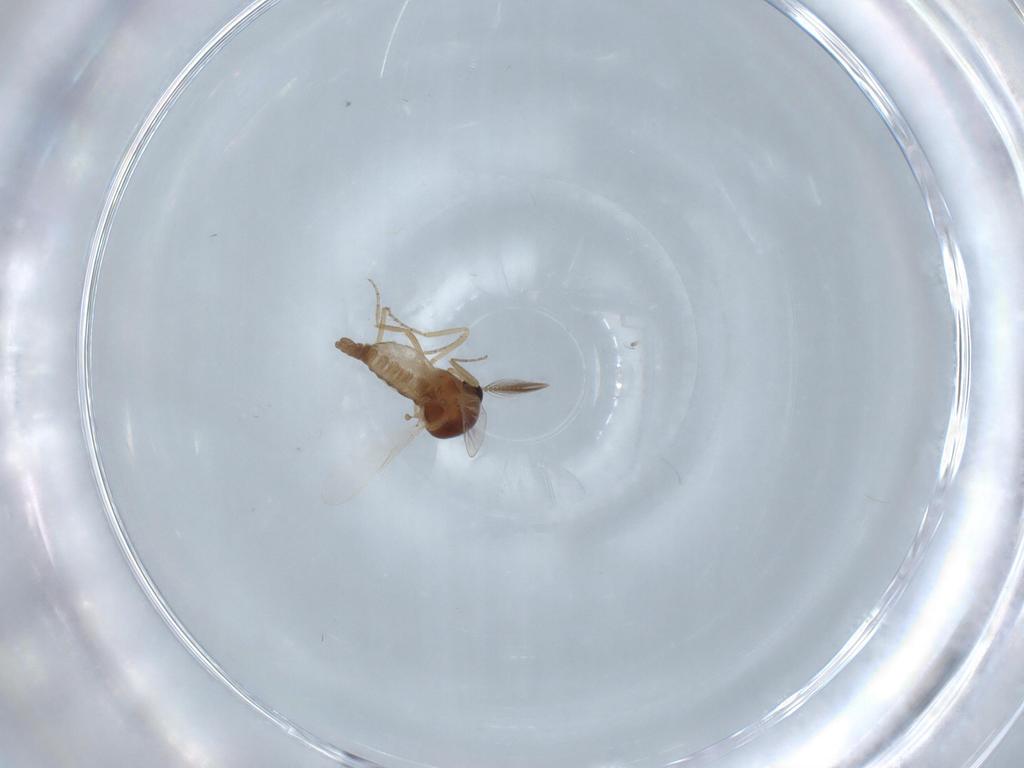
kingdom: Animalia
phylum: Arthropoda
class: Insecta
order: Diptera
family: Ceratopogonidae
